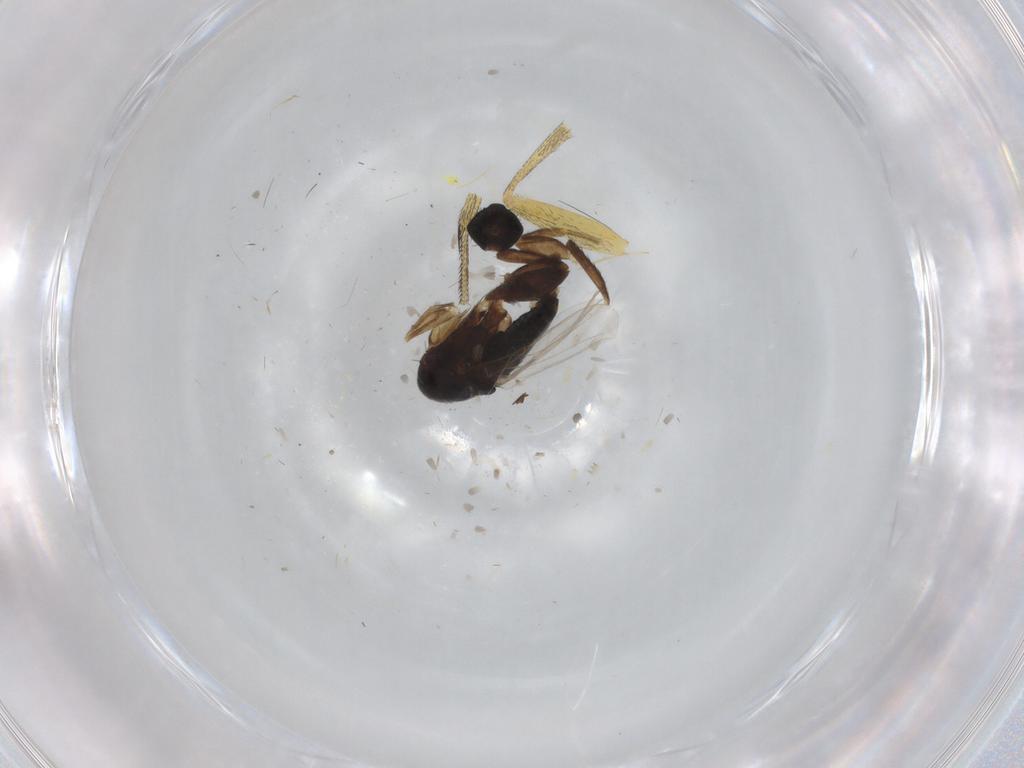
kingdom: Animalia
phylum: Arthropoda
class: Insecta
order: Diptera
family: Phoridae
